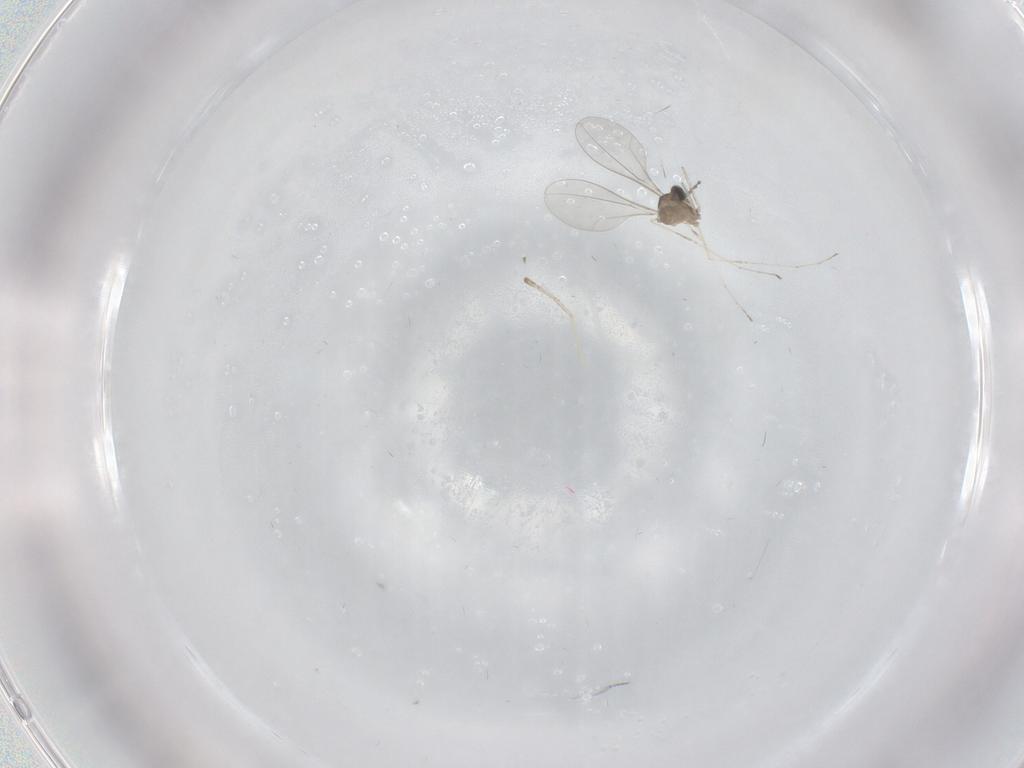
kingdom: Animalia
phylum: Arthropoda
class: Insecta
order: Diptera
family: Cecidomyiidae
